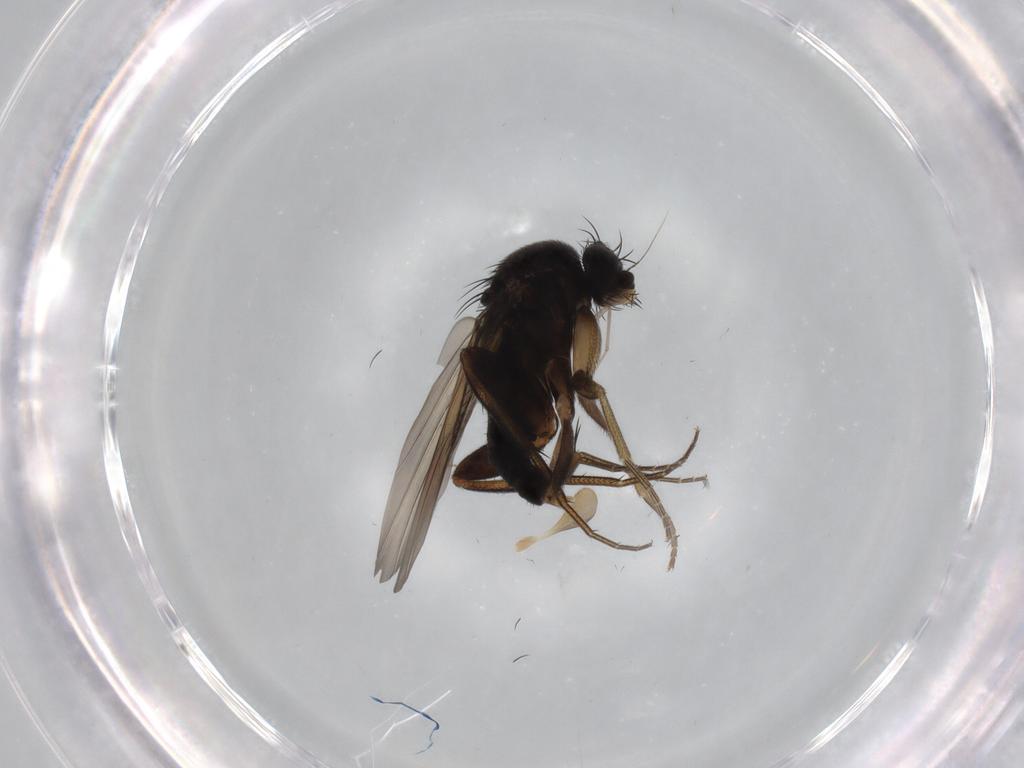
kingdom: Animalia
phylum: Arthropoda
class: Insecta
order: Diptera
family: Phoridae
